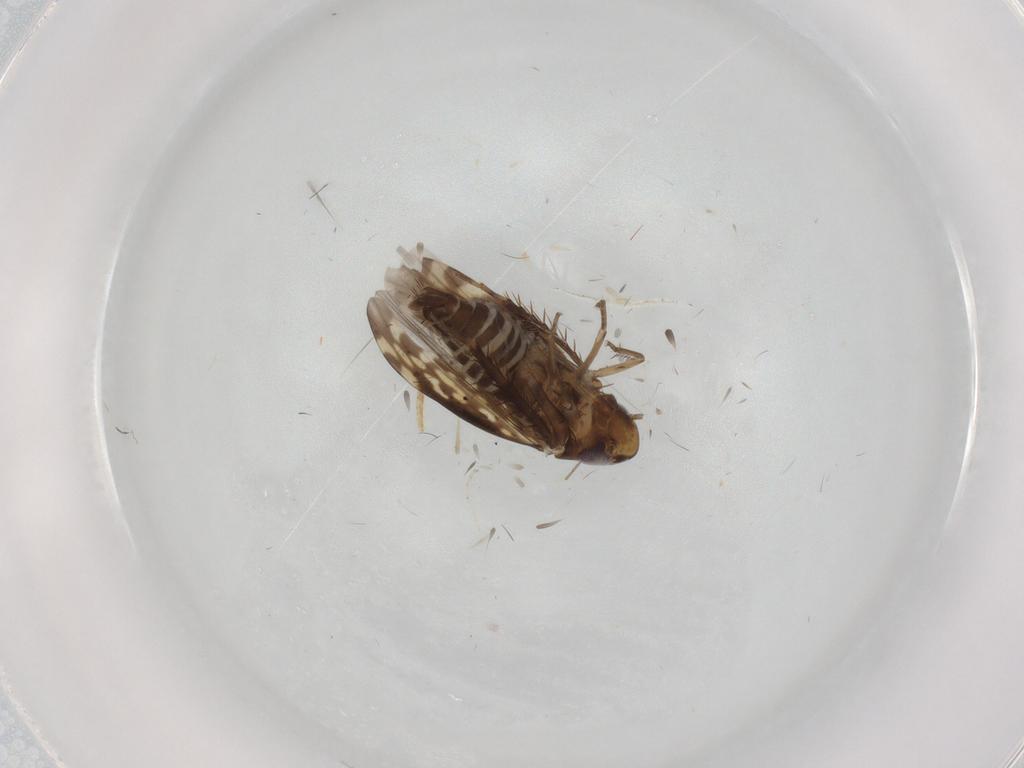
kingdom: Animalia
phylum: Arthropoda
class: Insecta
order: Hemiptera
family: Cicadellidae
